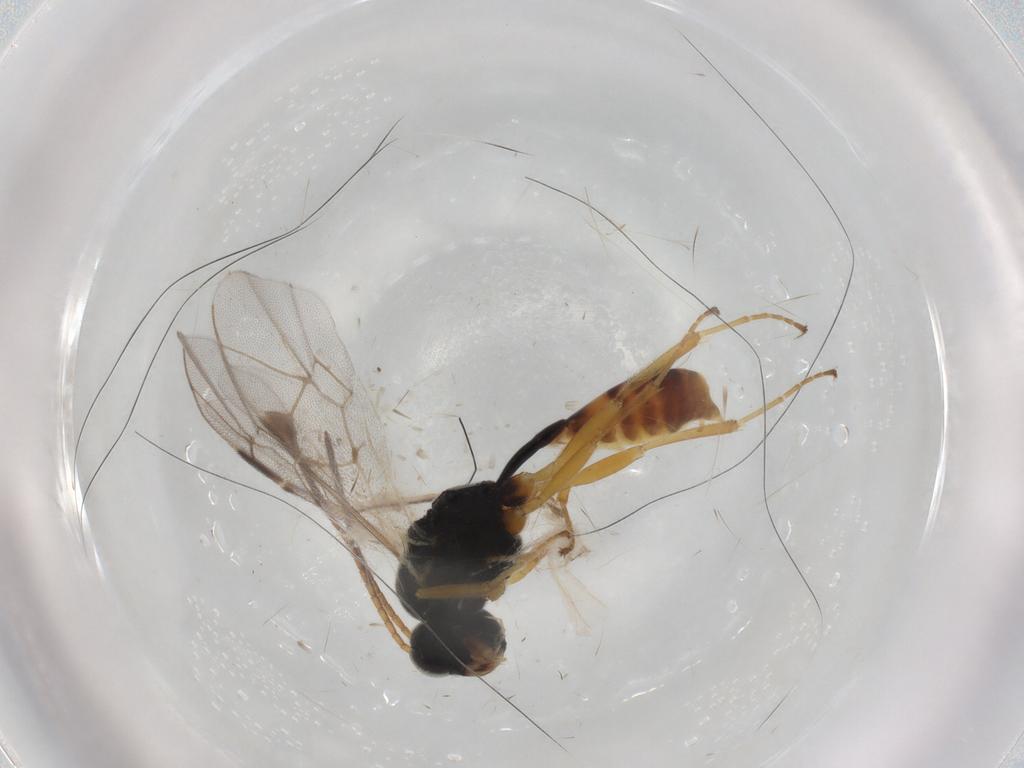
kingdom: Animalia
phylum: Arthropoda
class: Insecta
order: Hymenoptera
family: Ichneumonidae
